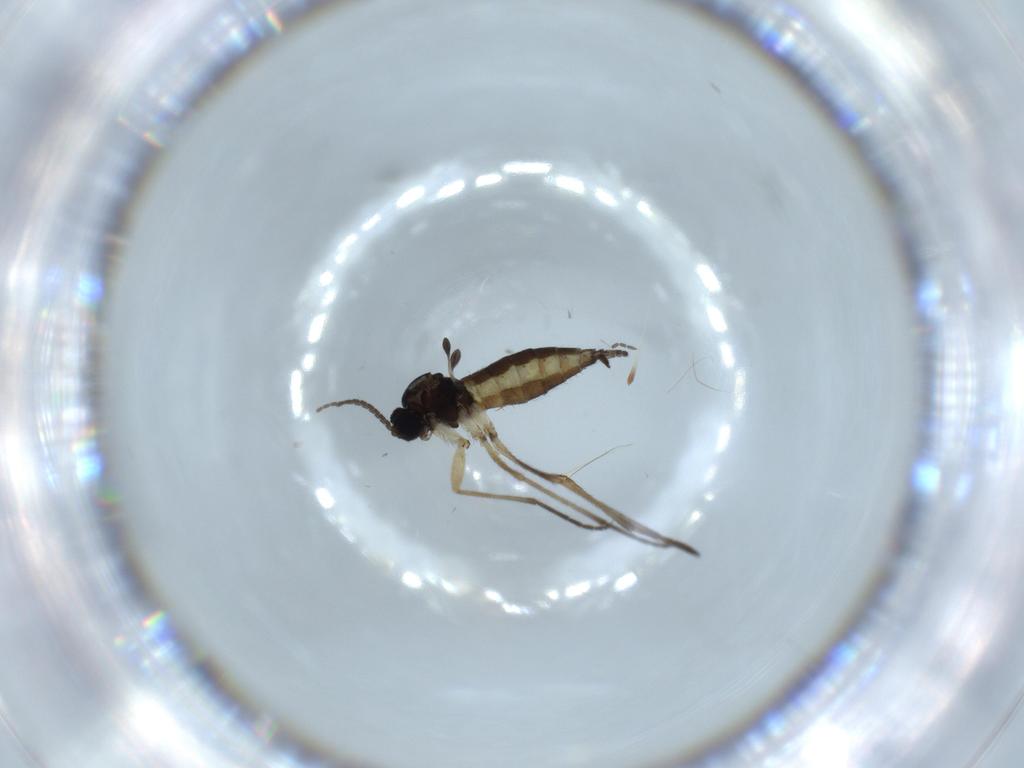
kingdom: Animalia
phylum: Arthropoda
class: Insecta
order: Diptera
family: Sciaridae
